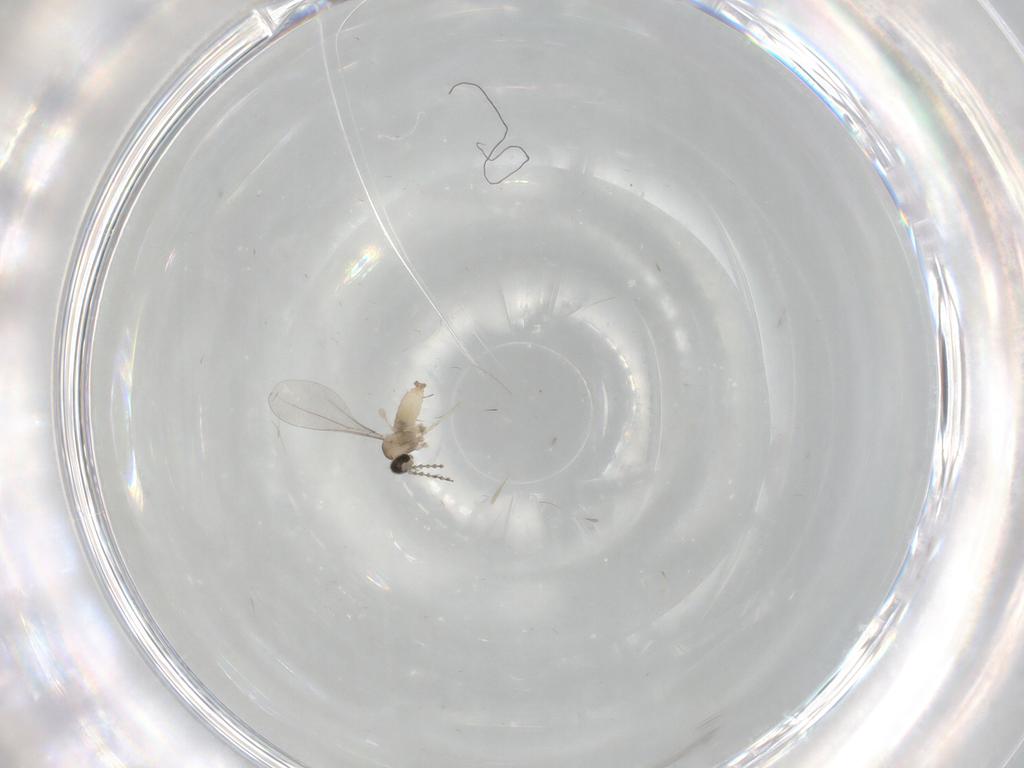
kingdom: Animalia
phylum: Arthropoda
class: Insecta
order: Diptera
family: Cecidomyiidae
